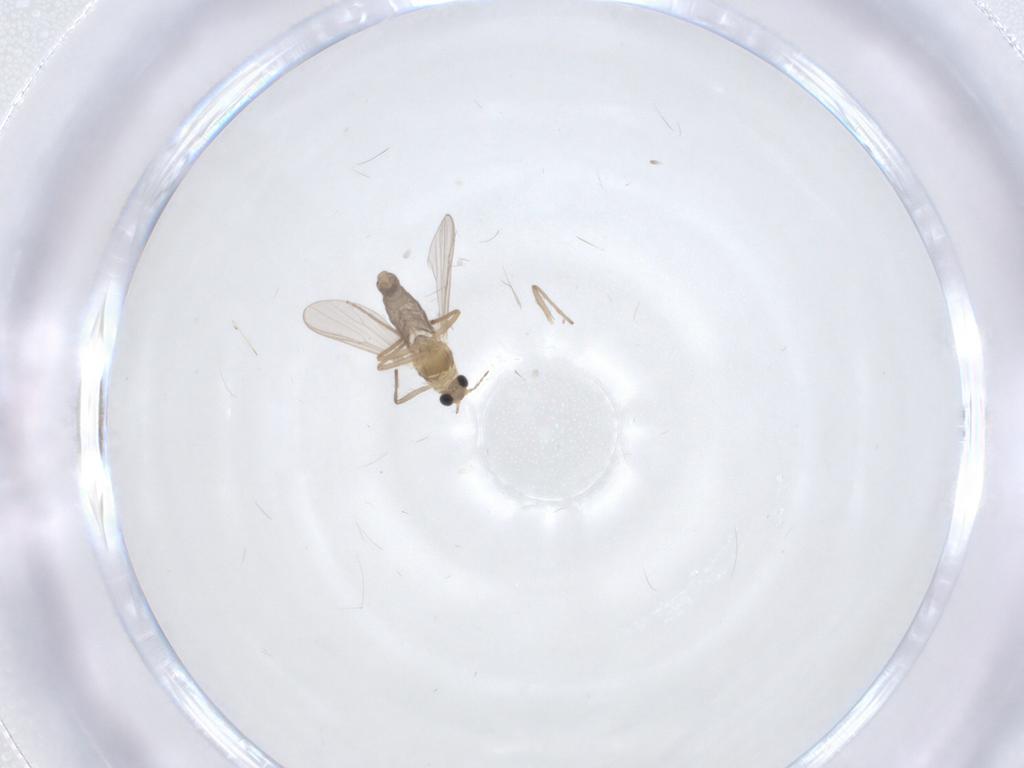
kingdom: Animalia
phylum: Arthropoda
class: Insecta
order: Diptera
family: Chironomidae
